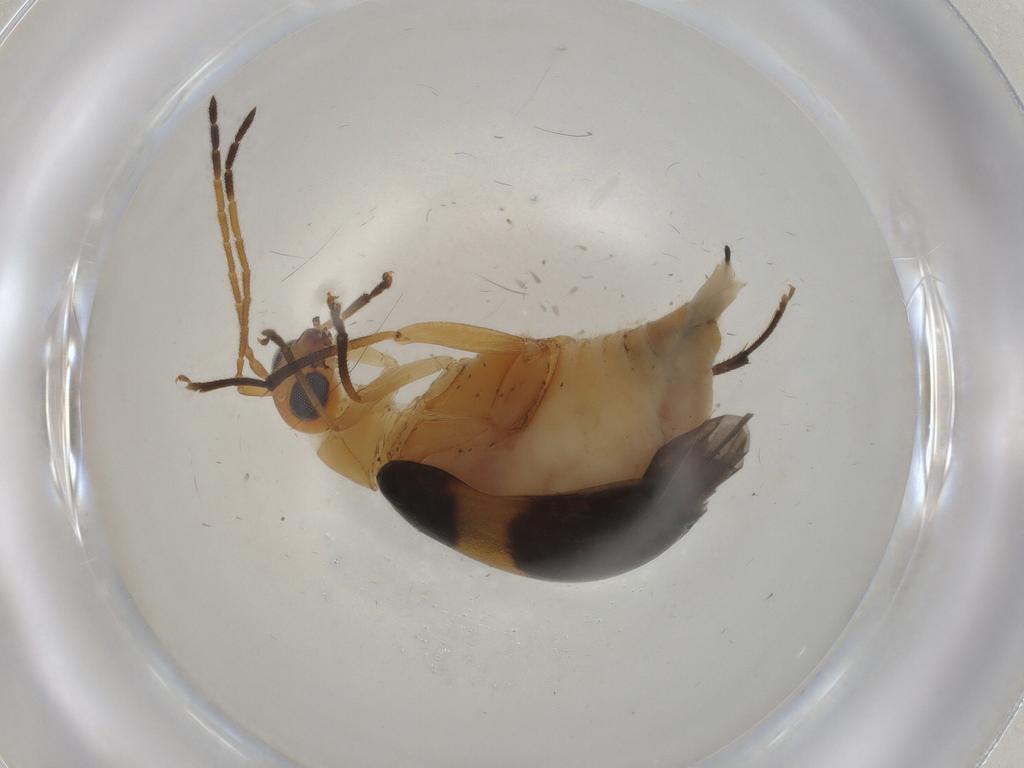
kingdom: Animalia
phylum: Arthropoda
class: Insecta
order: Coleoptera
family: Chrysomelidae
